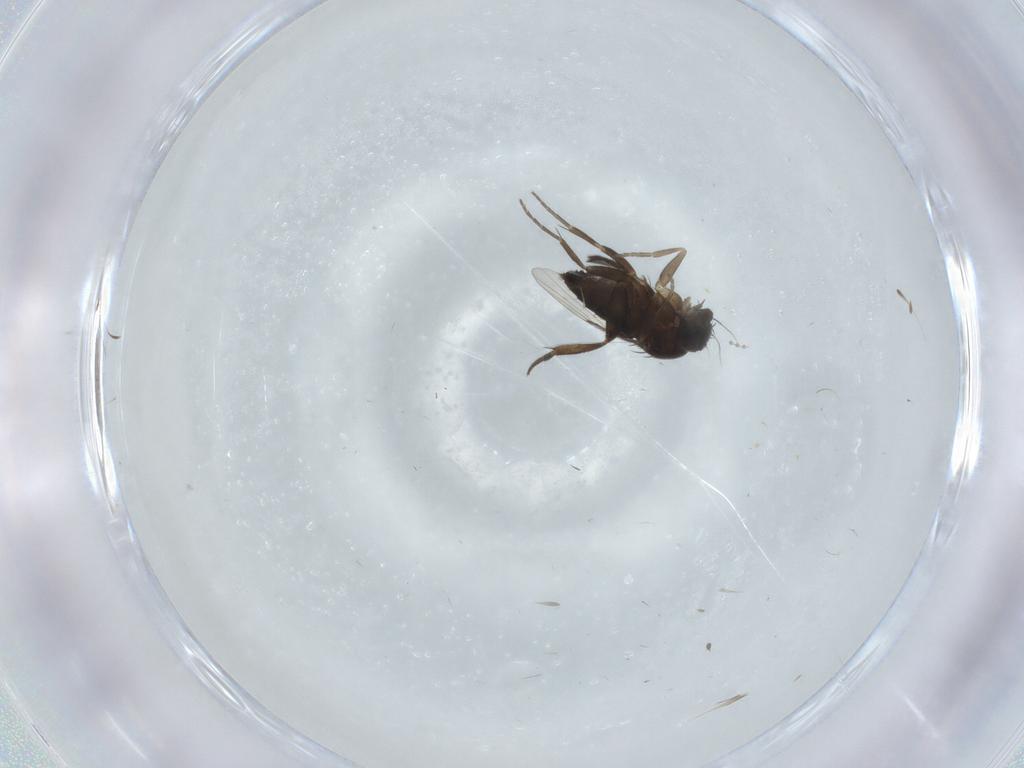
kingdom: Animalia
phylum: Arthropoda
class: Insecta
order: Diptera
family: Phoridae
